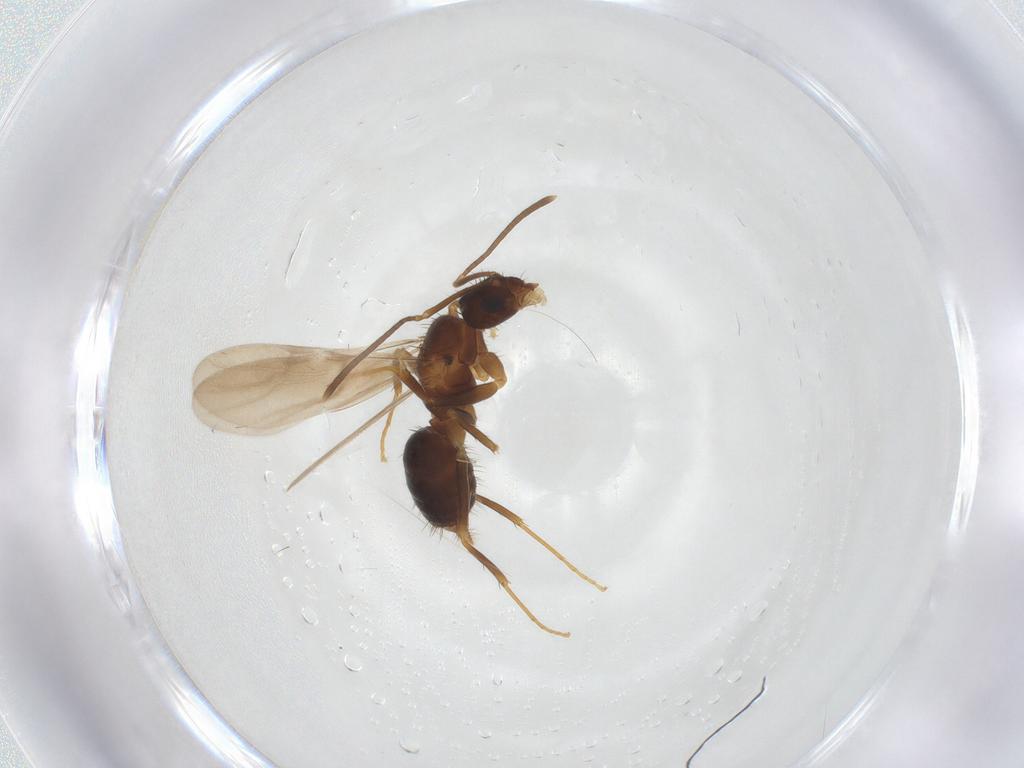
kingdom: Animalia
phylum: Arthropoda
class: Insecta
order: Hymenoptera
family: Formicidae
